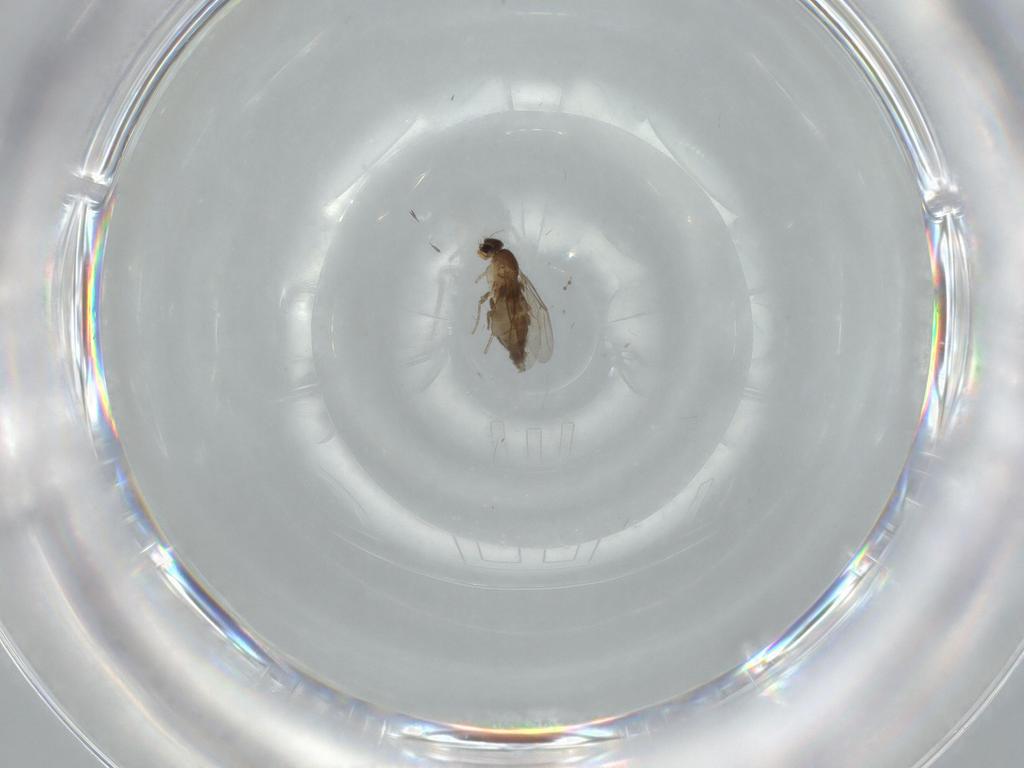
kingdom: Animalia
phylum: Arthropoda
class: Insecta
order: Diptera
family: Phoridae
